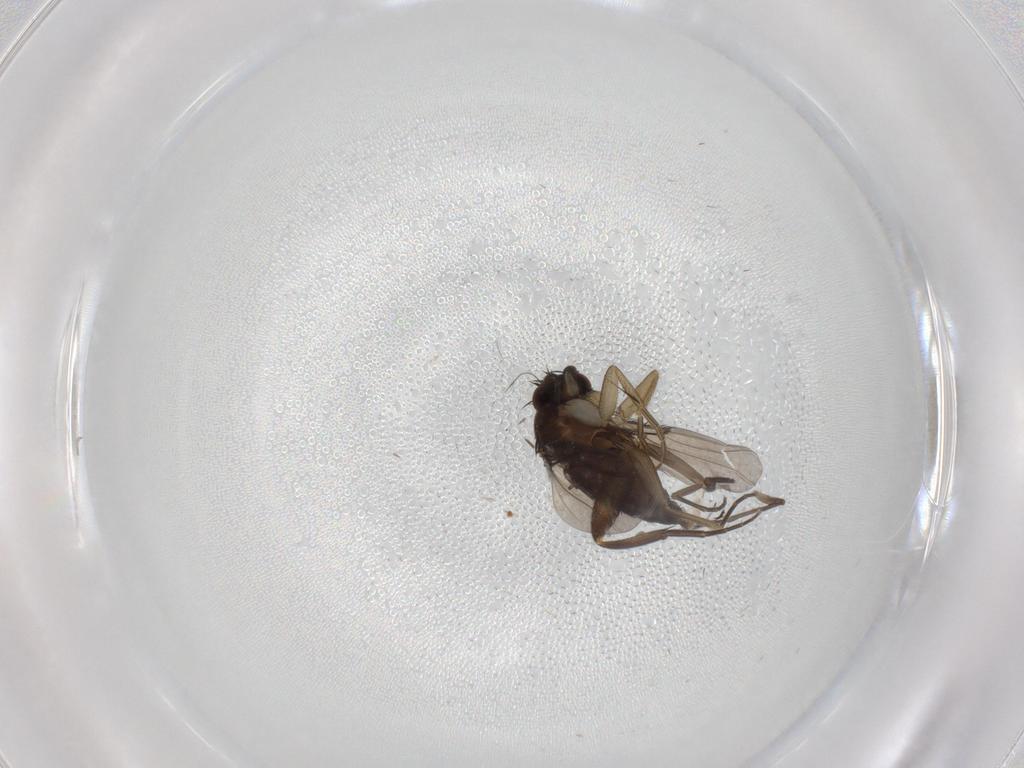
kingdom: Animalia
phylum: Arthropoda
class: Insecta
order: Diptera
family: Sciaridae
